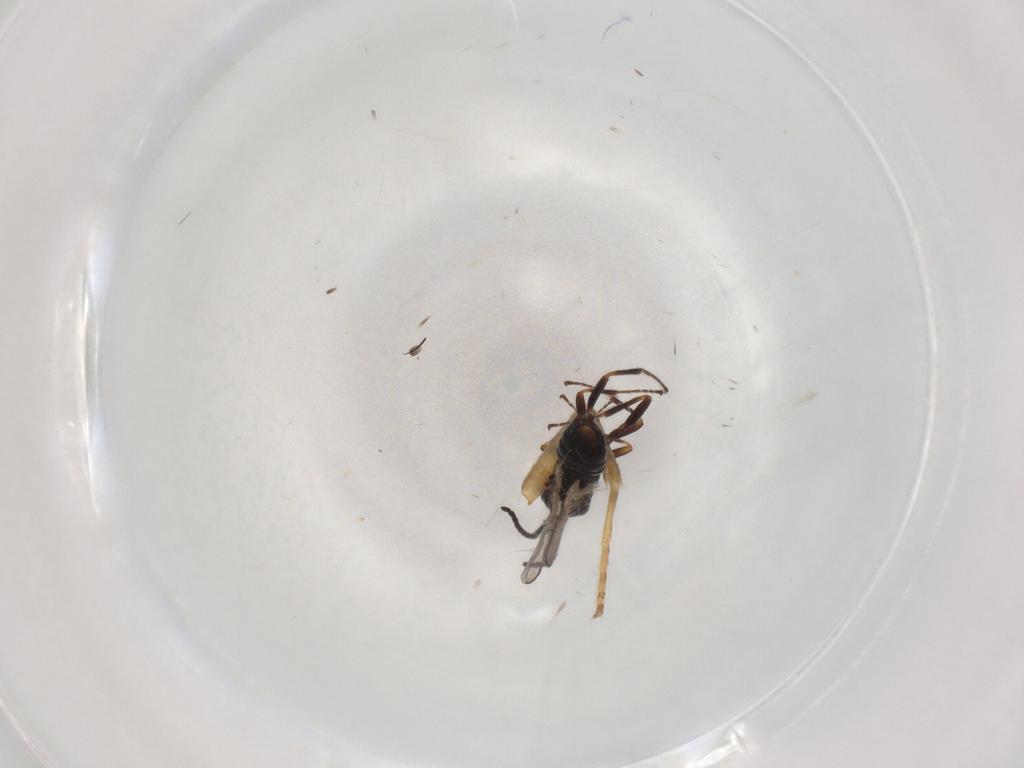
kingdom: Animalia
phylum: Arthropoda
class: Insecta
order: Hymenoptera
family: Braconidae
